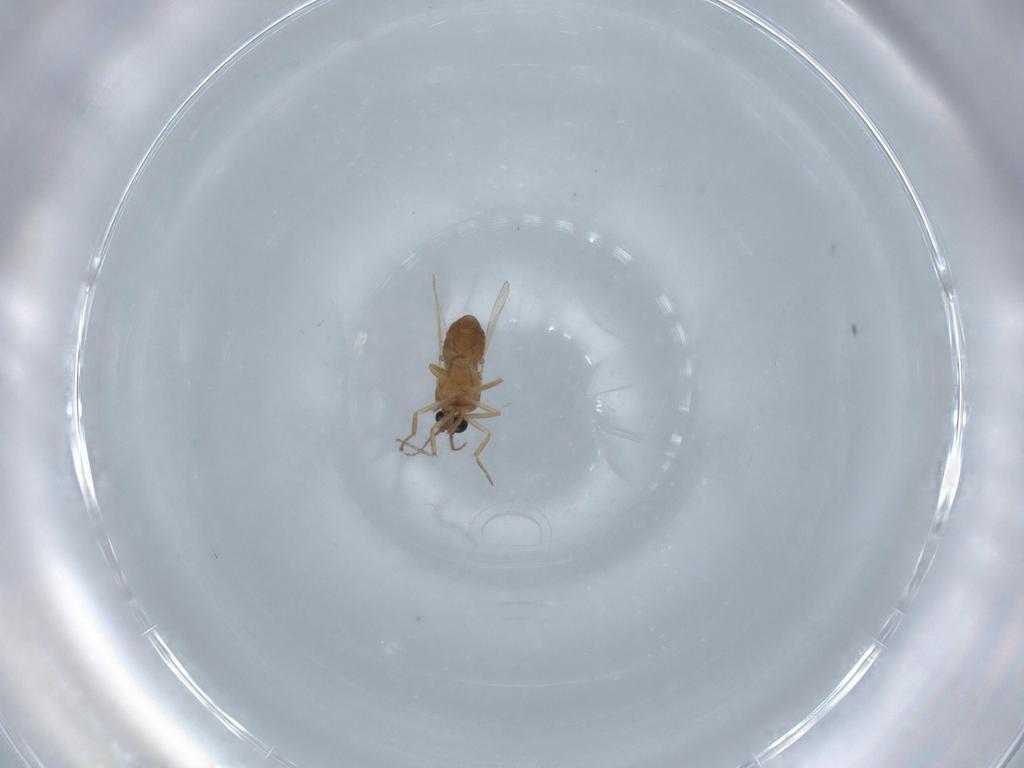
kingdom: Animalia
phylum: Arthropoda
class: Insecta
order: Diptera
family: Ceratopogonidae
